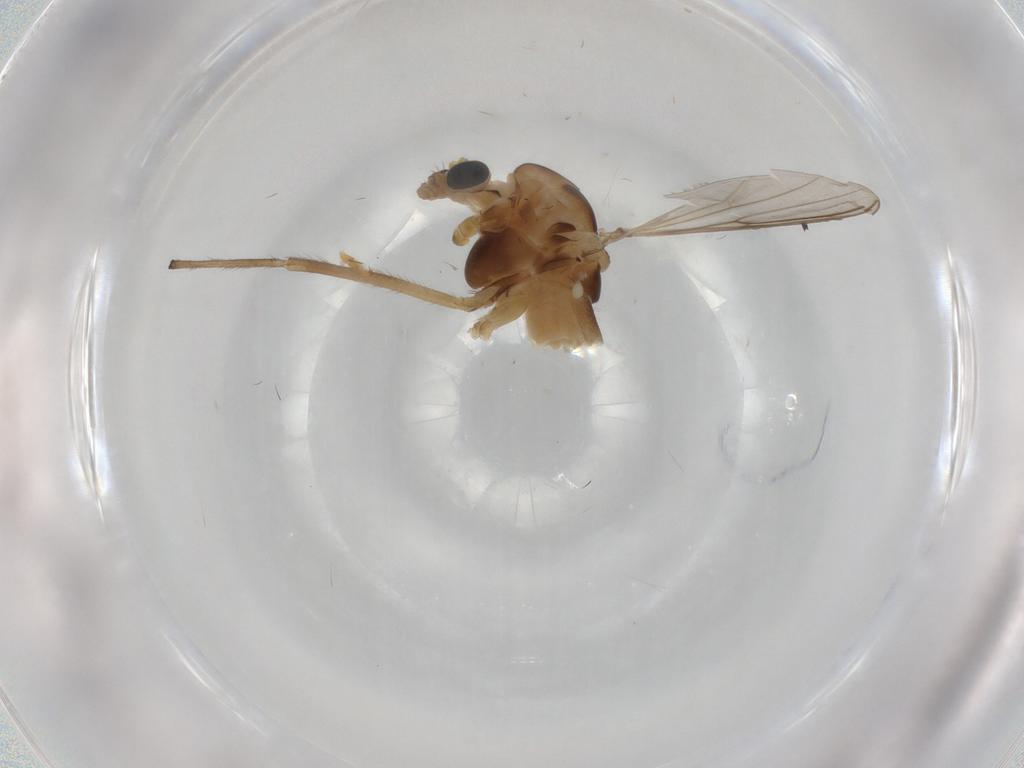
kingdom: Animalia
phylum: Arthropoda
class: Insecta
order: Diptera
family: Chironomidae
